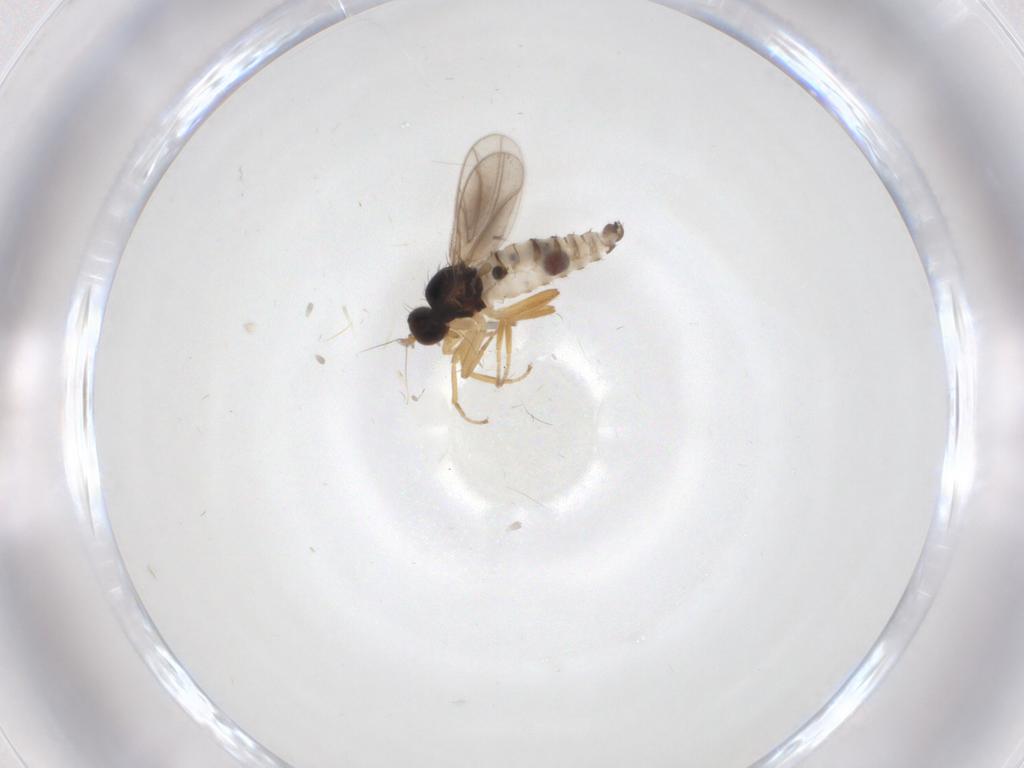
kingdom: Animalia
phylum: Arthropoda
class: Insecta
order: Diptera
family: Hybotidae
